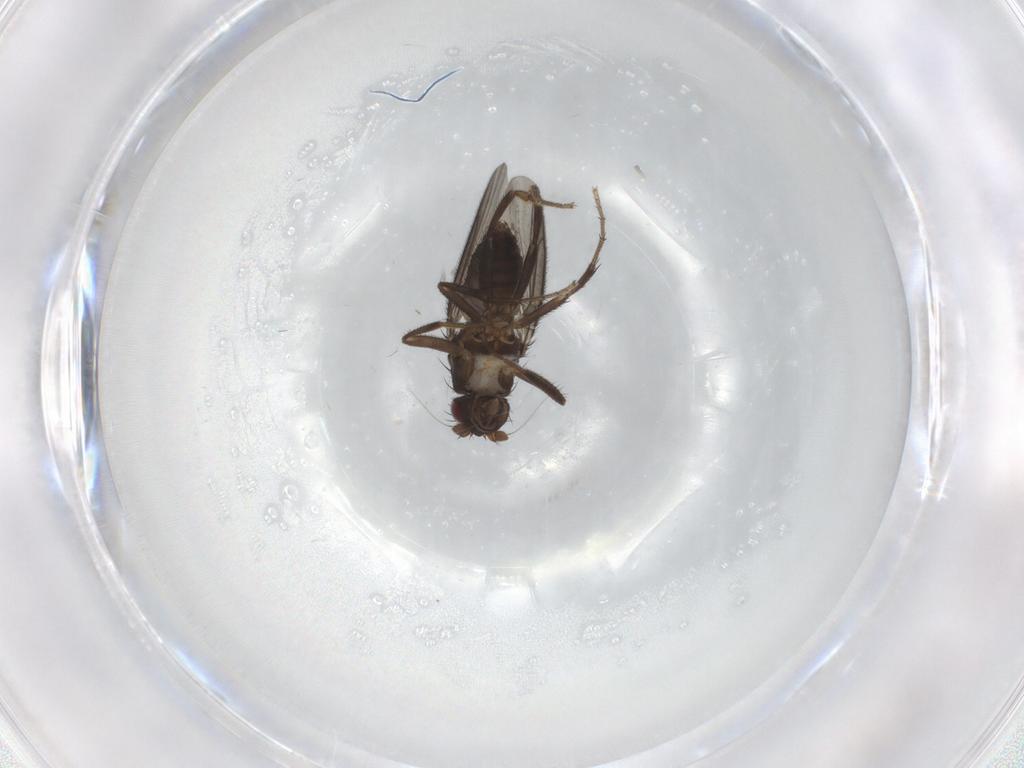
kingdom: Animalia
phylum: Arthropoda
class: Insecta
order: Diptera
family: Sphaeroceridae
